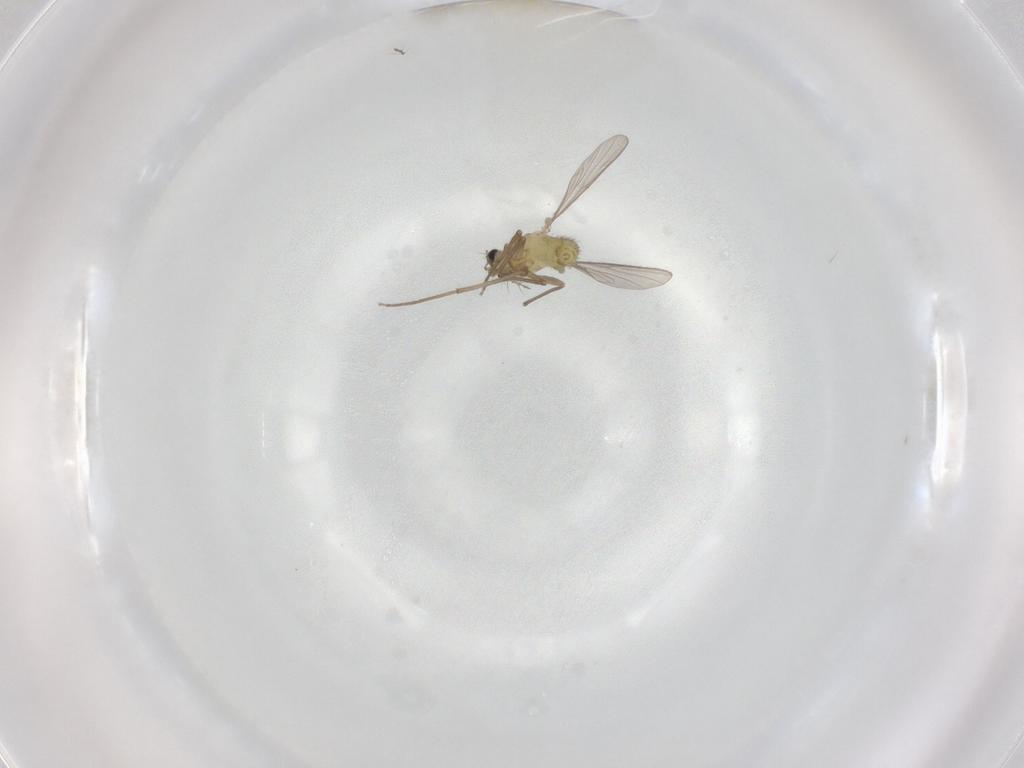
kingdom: Animalia
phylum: Arthropoda
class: Insecta
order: Diptera
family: Chironomidae
